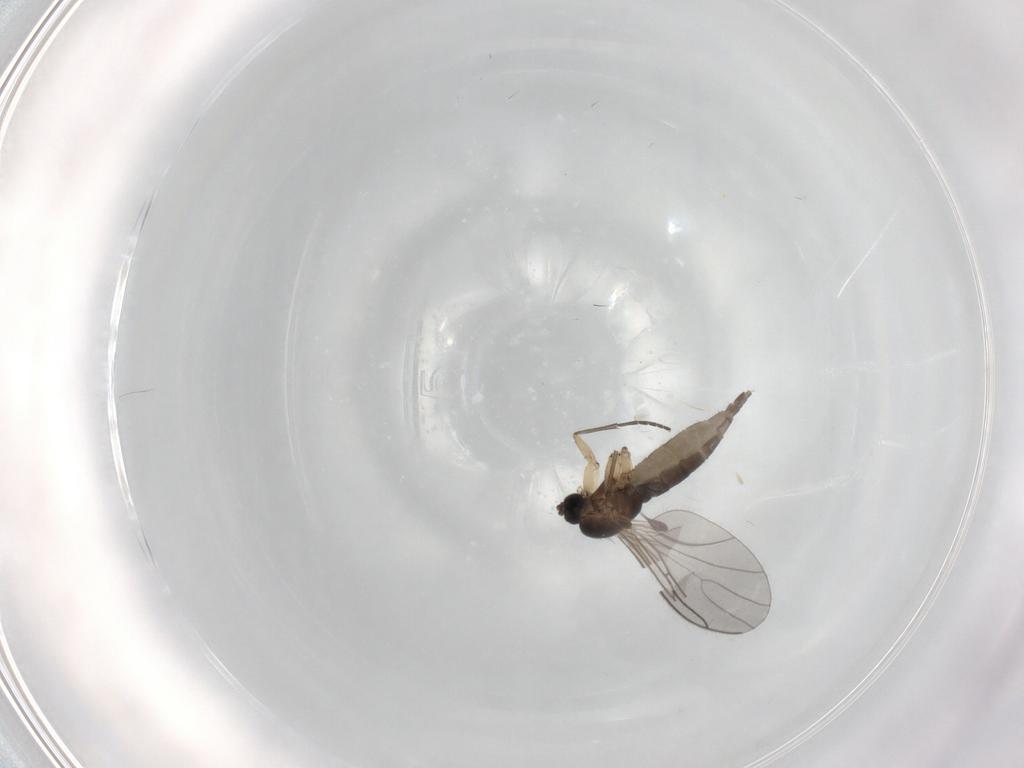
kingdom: Animalia
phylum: Arthropoda
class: Insecta
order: Diptera
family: Sciaridae
